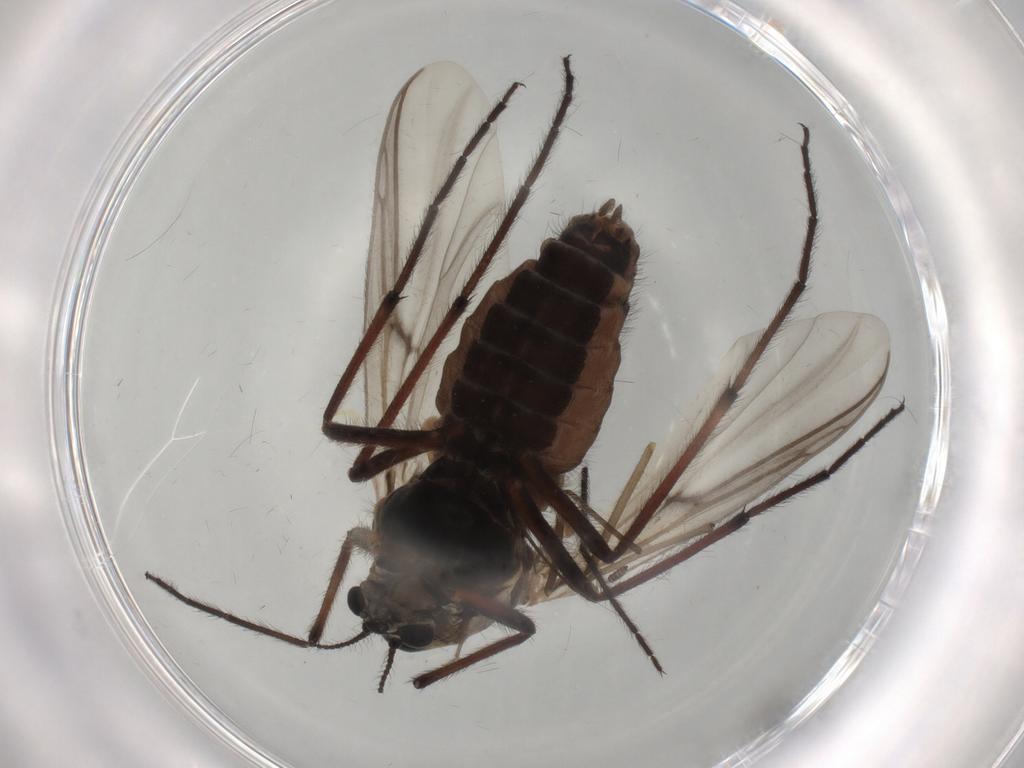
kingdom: Animalia
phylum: Arthropoda
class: Insecta
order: Diptera
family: Chironomidae
